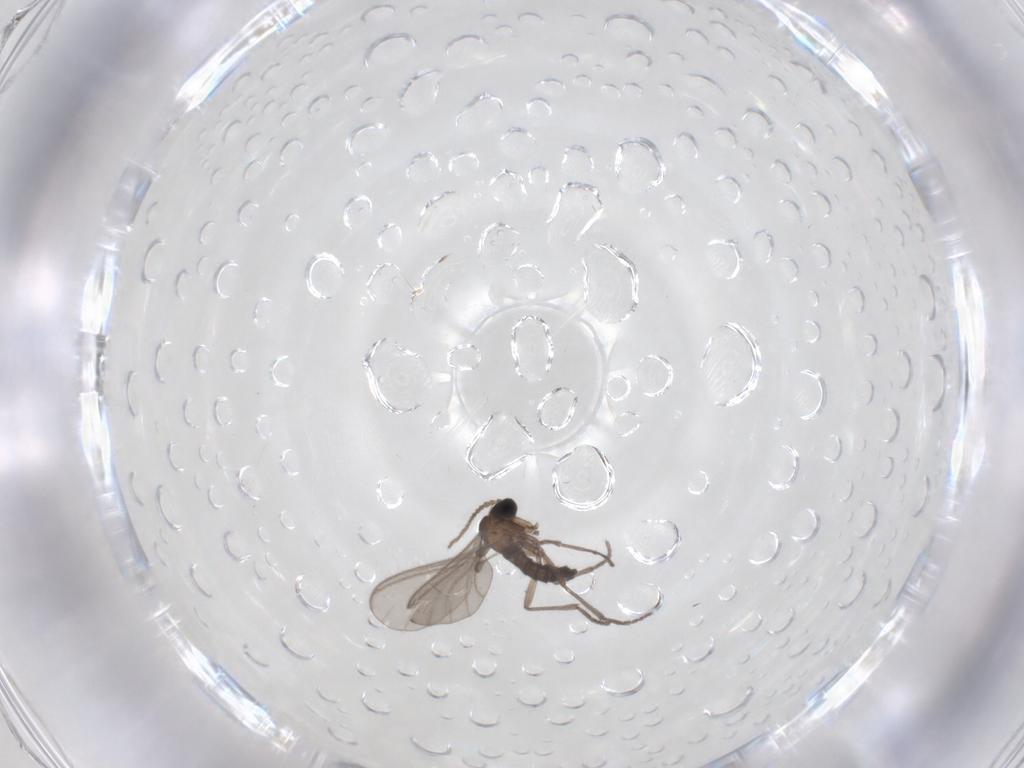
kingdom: Animalia
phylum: Arthropoda
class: Insecta
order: Diptera
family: Sciaridae
